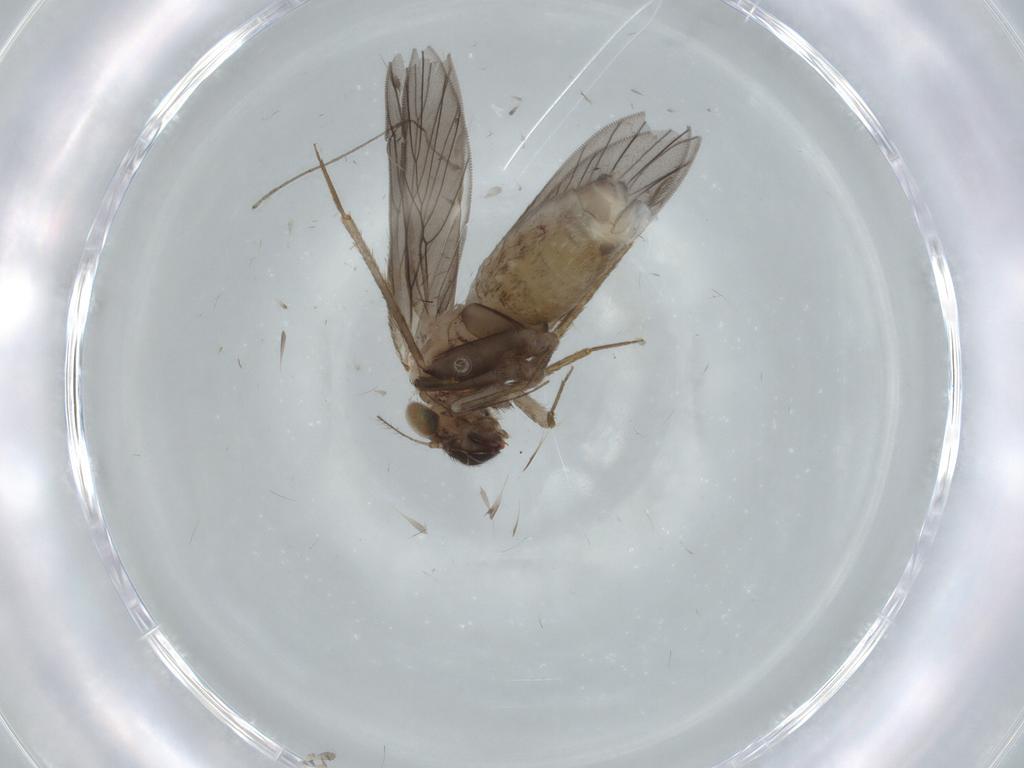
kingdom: Animalia
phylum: Arthropoda
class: Insecta
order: Psocodea
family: Lepidopsocidae
